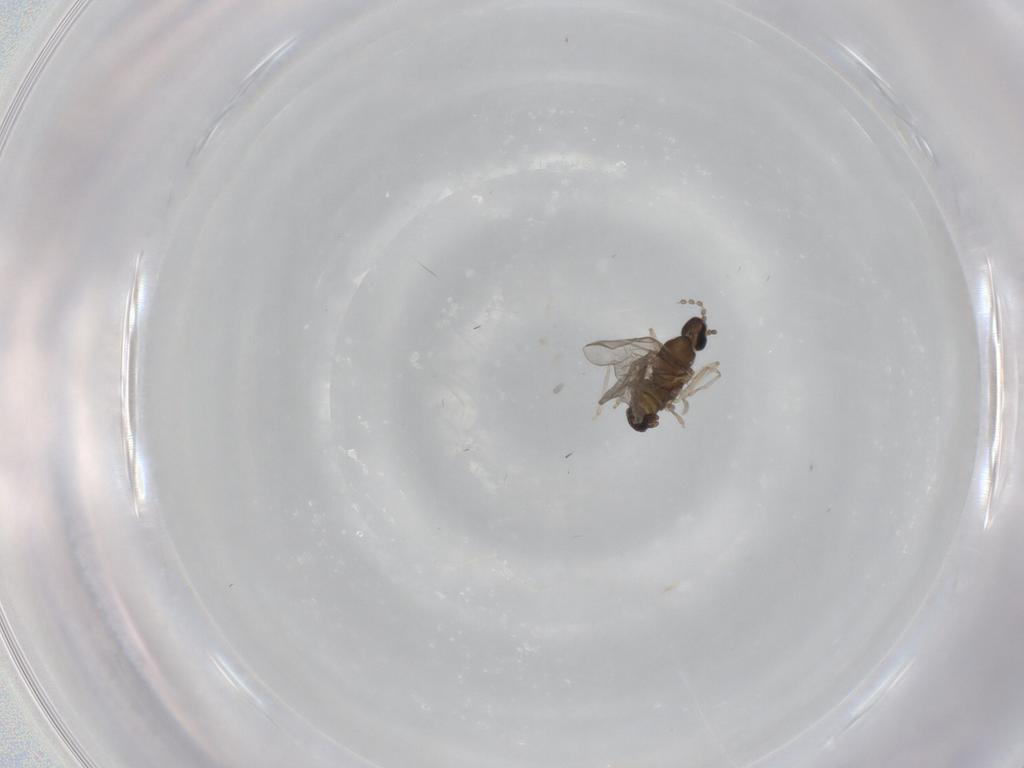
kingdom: Animalia
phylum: Arthropoda
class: Insecta
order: Diptera
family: Cecidomyiidae
